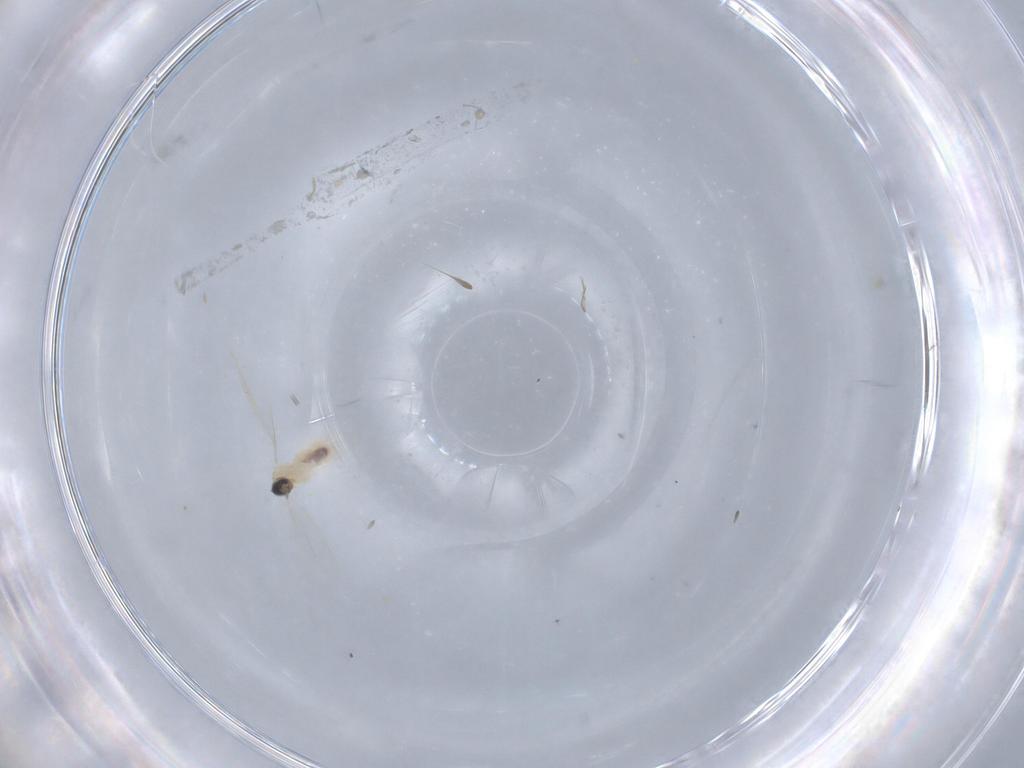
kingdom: Animalia
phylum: Arthropoda
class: Insecta
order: Diptera
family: Cecidomyiidae
